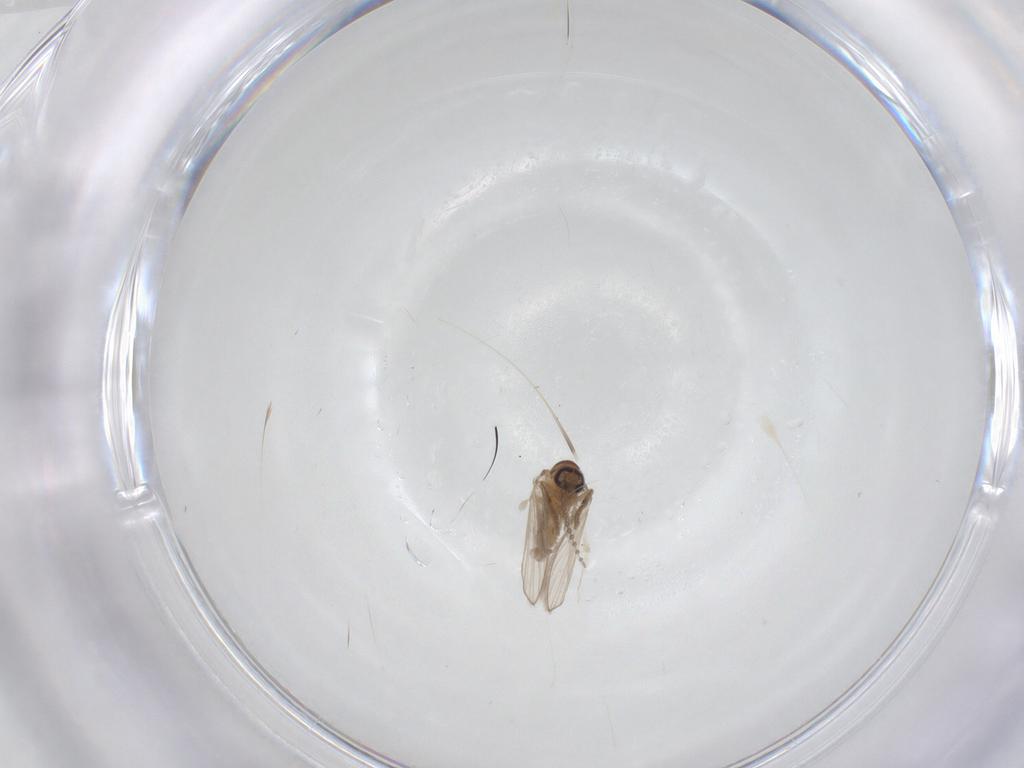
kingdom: Animalia
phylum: Arthropoda
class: Insecta
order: Diptera
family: Psychodidae
